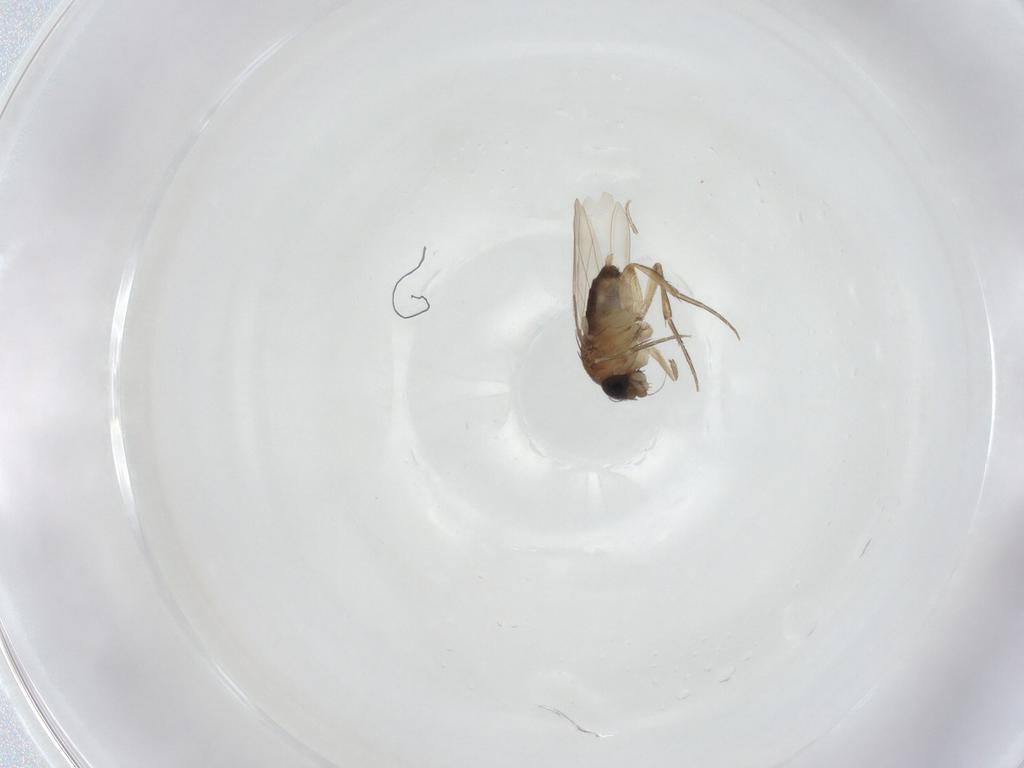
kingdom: Animalia
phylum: Arthropoda
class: Insecta
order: Diptera
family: Phoridae
